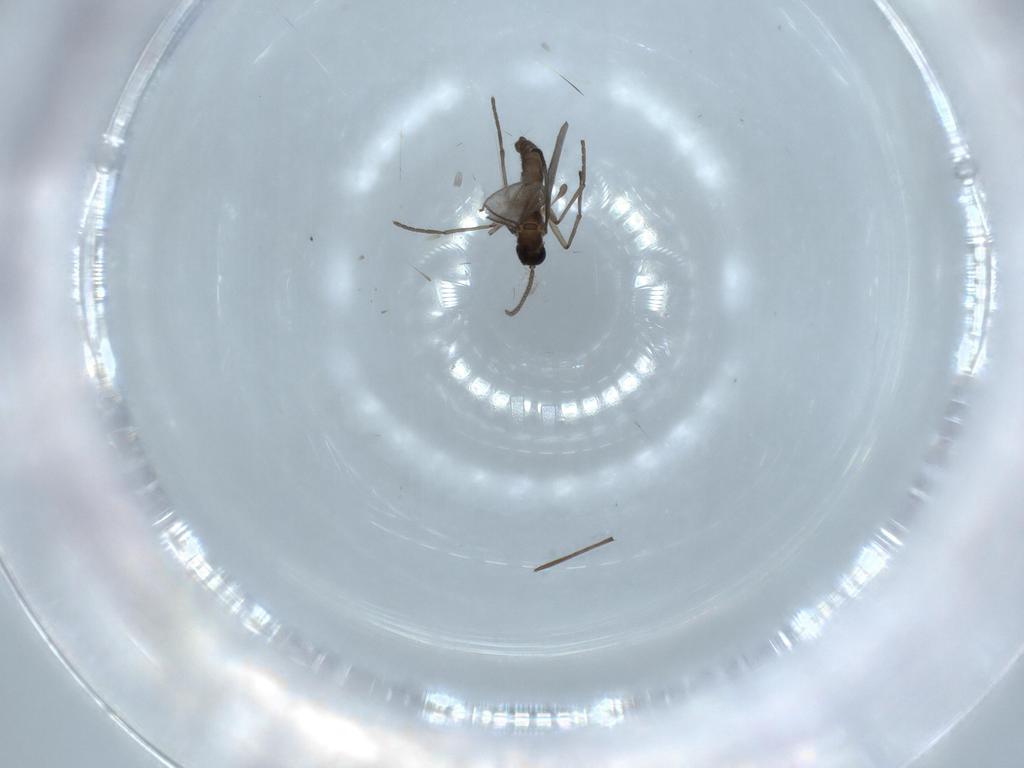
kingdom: Animalia
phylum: Arthropoda
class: Insecta
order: Diptera
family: Sciaridae
